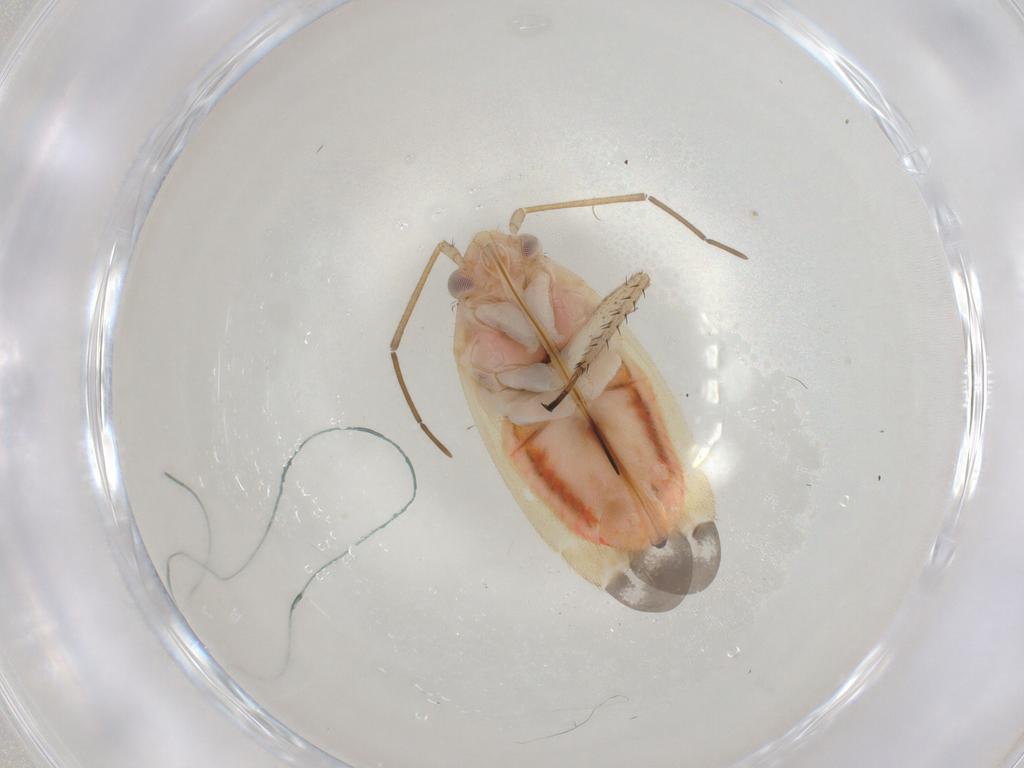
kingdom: Animalia
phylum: Arthropoda
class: Insecta
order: Hemiptera
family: Miridae
